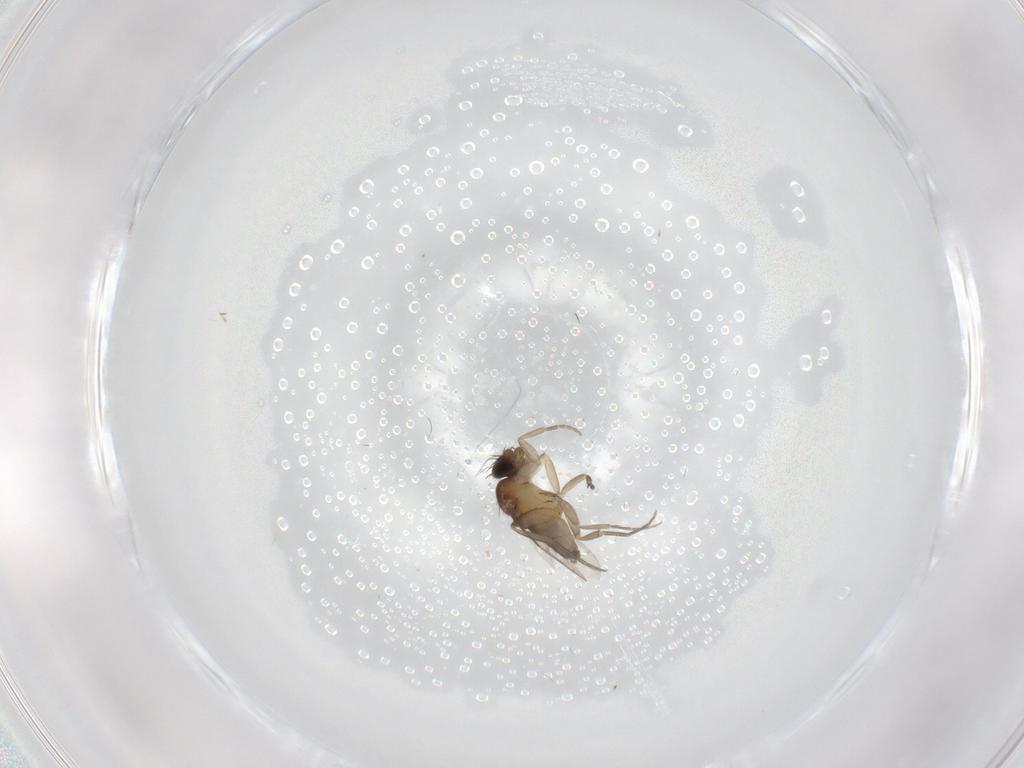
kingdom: Animalia
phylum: Arthropoda
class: Insecta
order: Diptera
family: Phoridae
